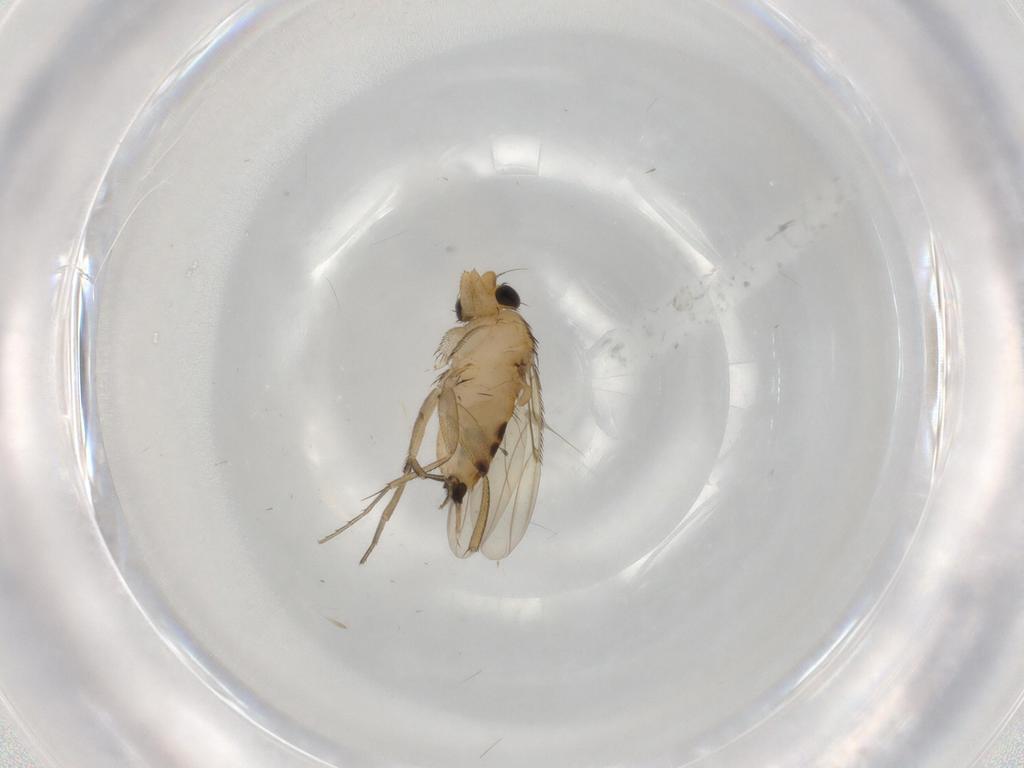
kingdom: Animalia
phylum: Arthropoda
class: Insecta
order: Diptera
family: Phoridae
